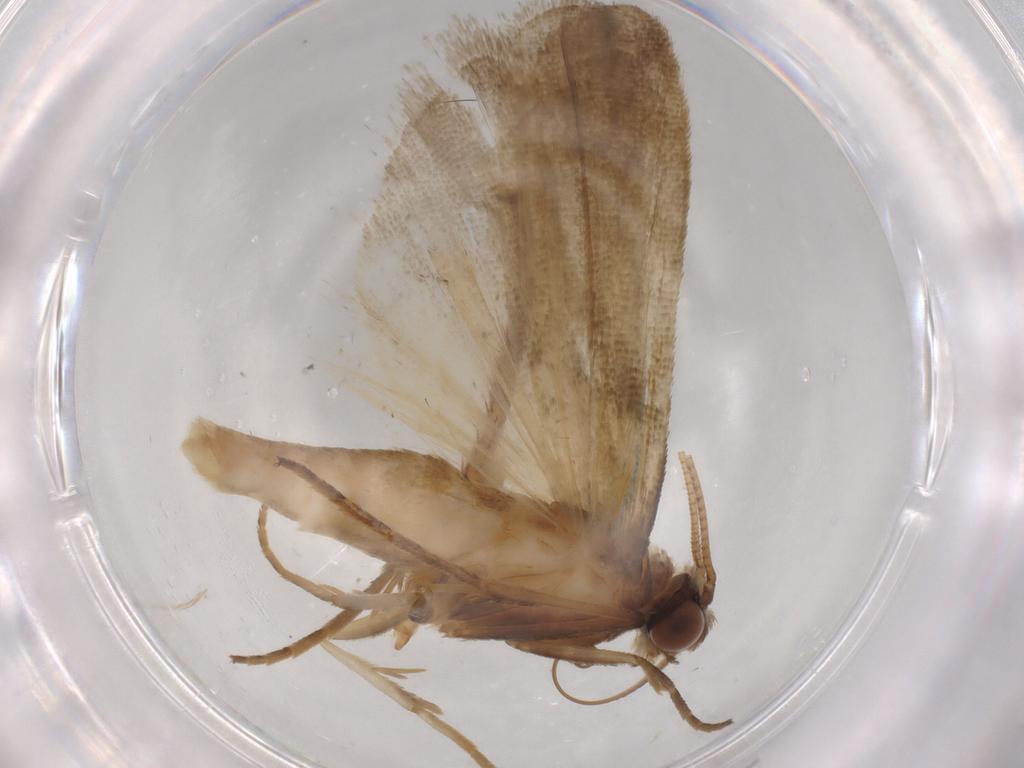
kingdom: Animalia
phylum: Arthropoda
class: Insecta
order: Lepidoptera
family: Noctuidae
